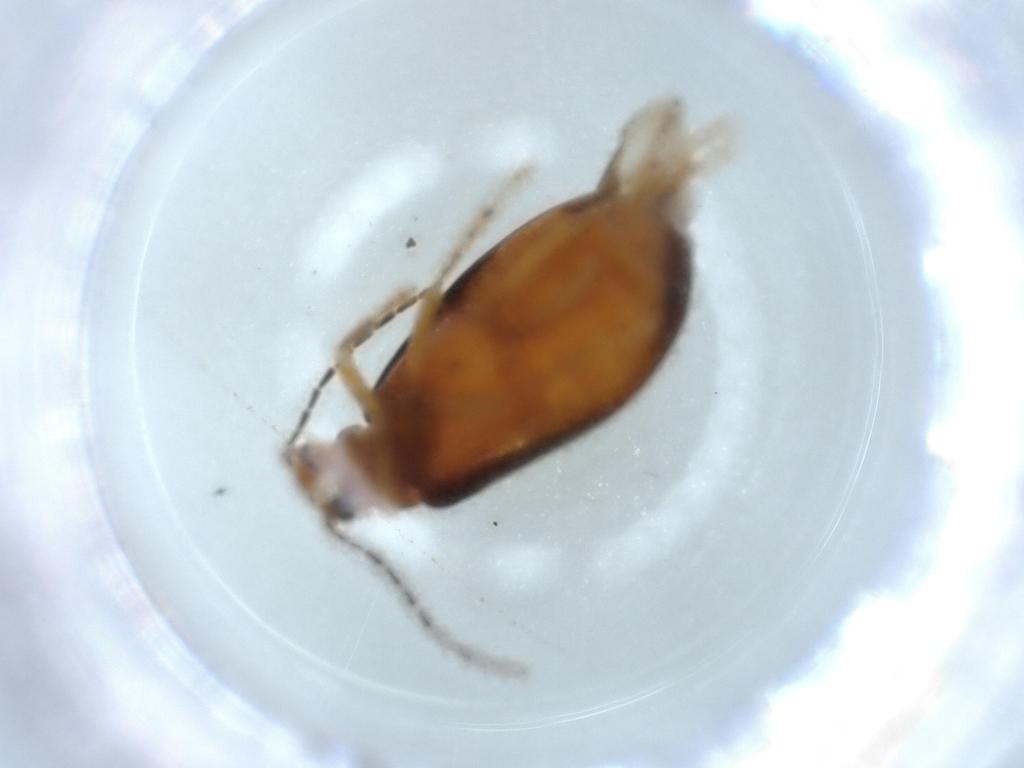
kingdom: Animalia
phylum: Arthropoda
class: Insecta
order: Coleoptera
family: Scraptiidae
